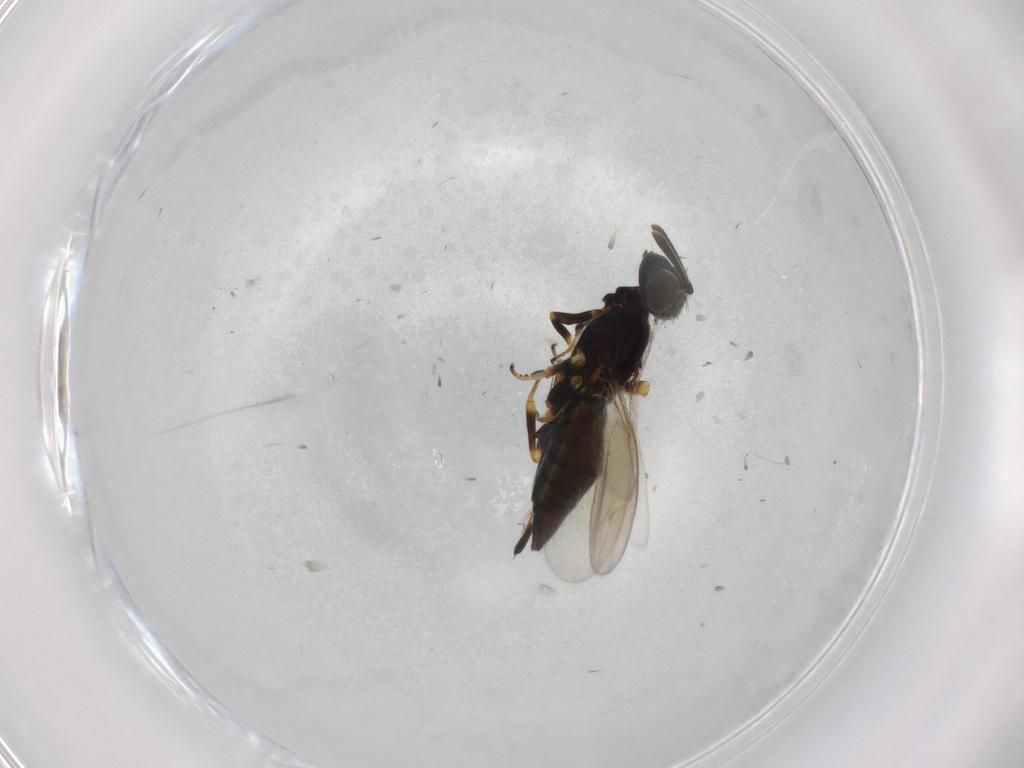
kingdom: Animalia
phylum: Arthropoda
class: Insecta
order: Hymenoptera
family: Eupelmidae
